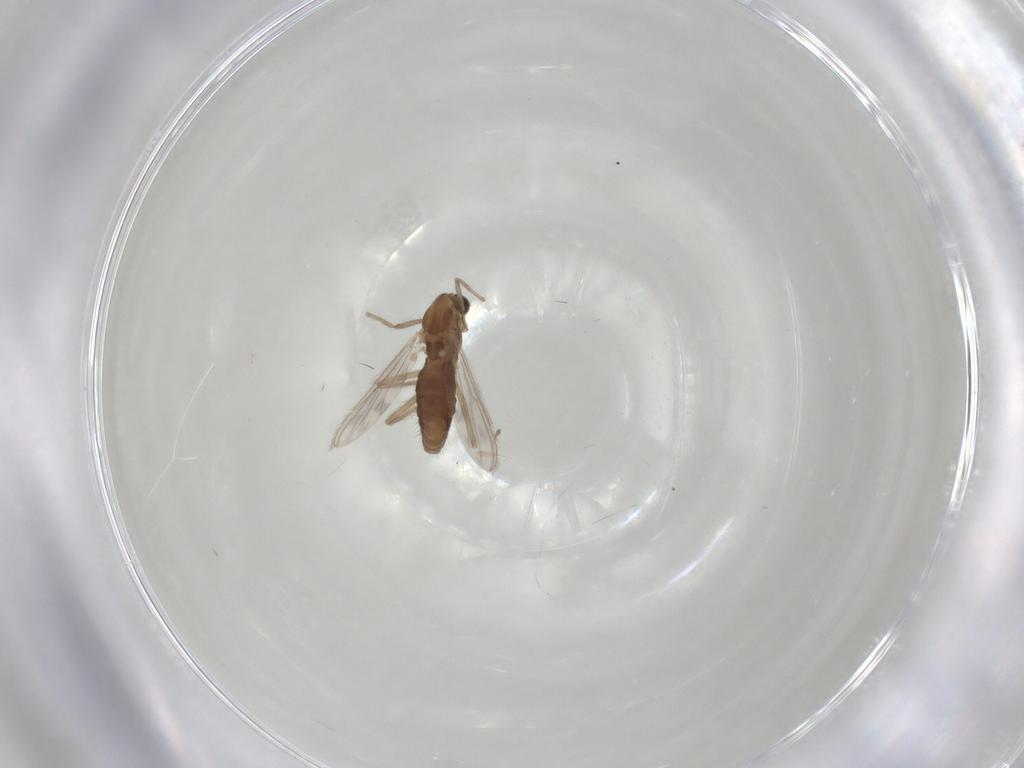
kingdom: Animalia
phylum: Arthropoda
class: Insecta
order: Diptera
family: Chironomidae
